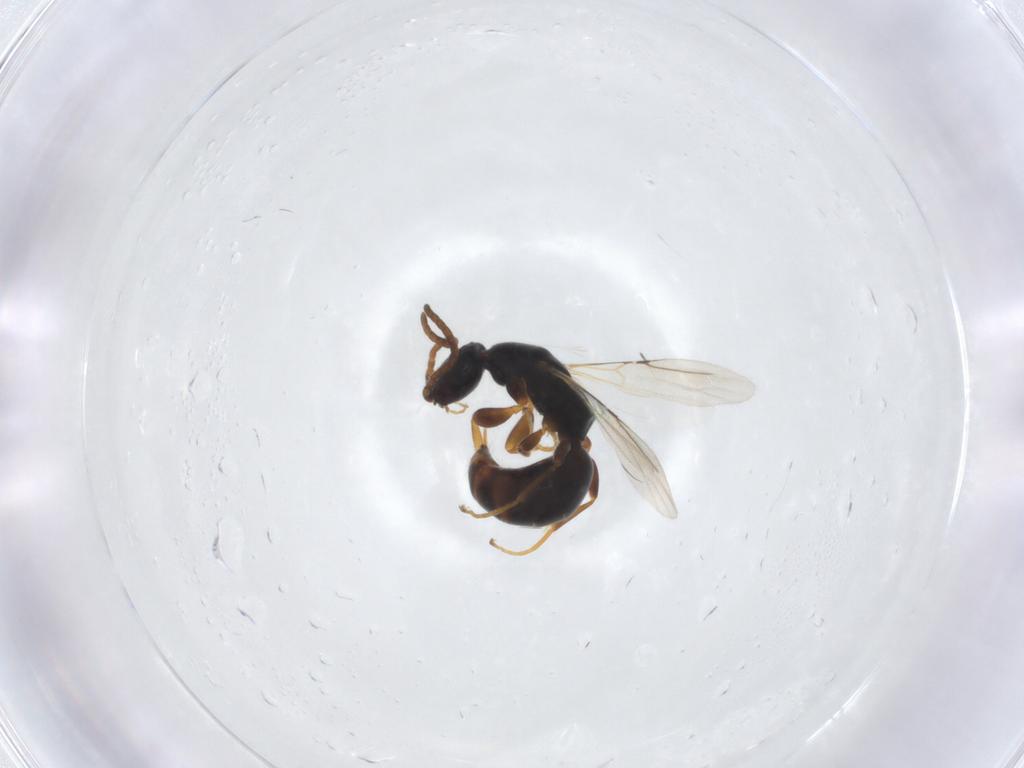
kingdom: Animalia
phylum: Arthropoda
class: Insecta
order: Hymenoptera
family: Bethylidae
